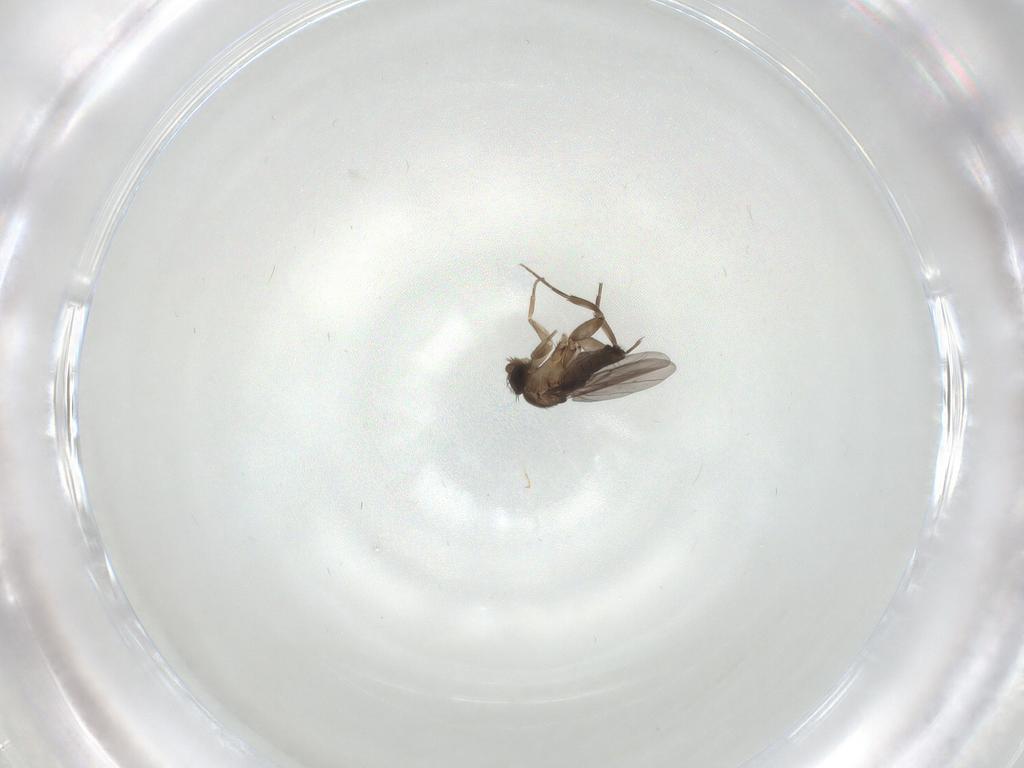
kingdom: Animalia
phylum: Arthropoda
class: Insecta
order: Diptera
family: Phoridae
